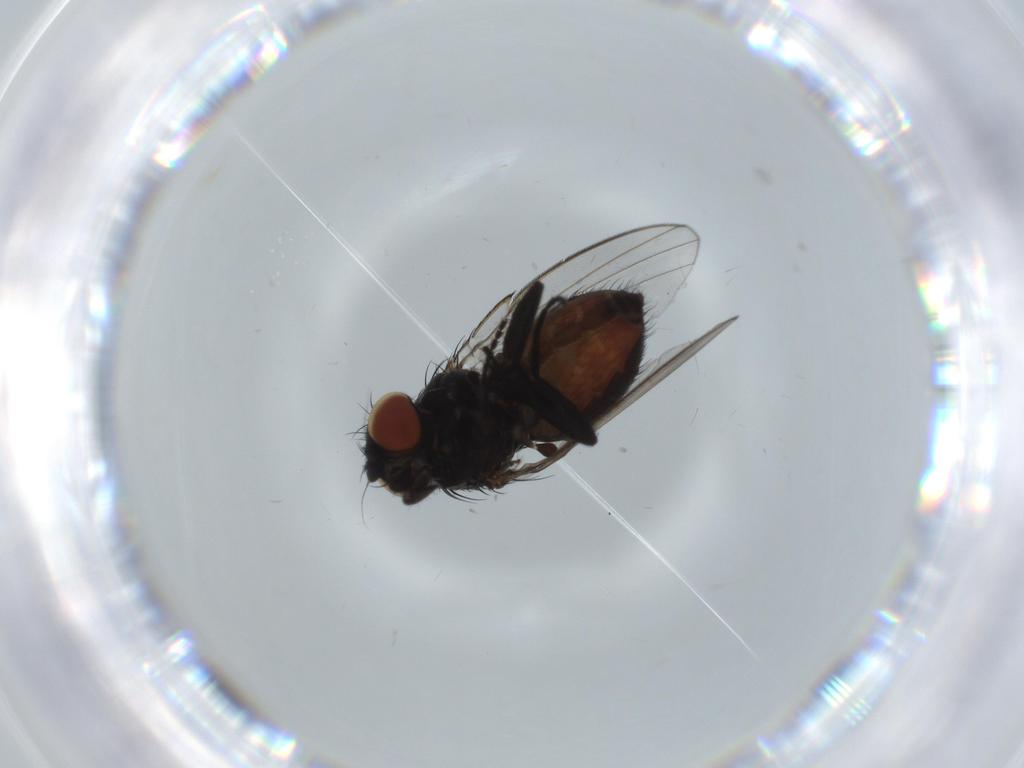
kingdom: Animalia
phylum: Arthropoda
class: Insecta
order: Diptera
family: Milichiidae
